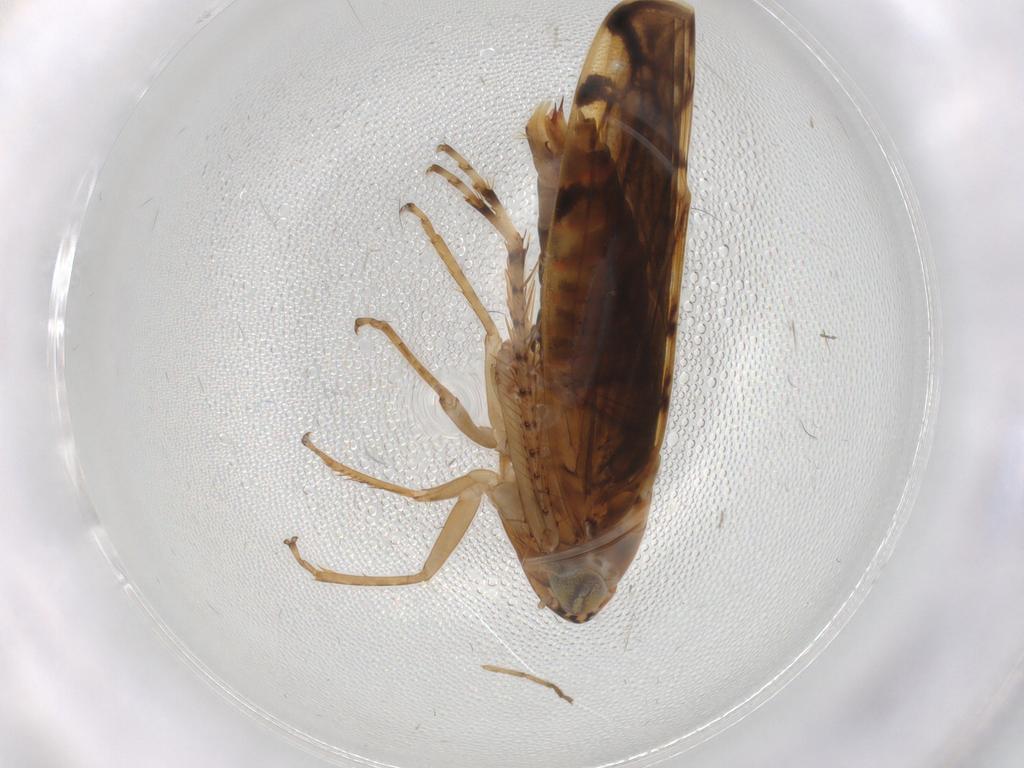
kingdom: Animalia
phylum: Arthropoda
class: Insecta
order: Hemiptera
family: Cicadellidae
